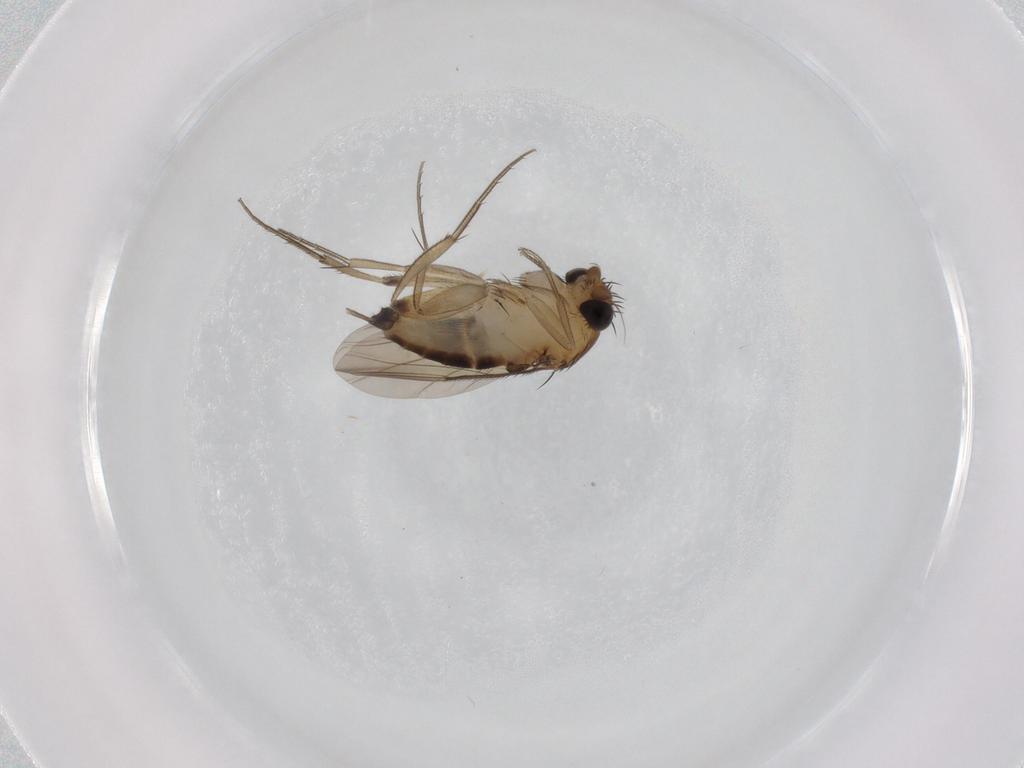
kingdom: Animalia
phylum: Arthropoda
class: Insecta
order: Diptera
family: Phoridae
